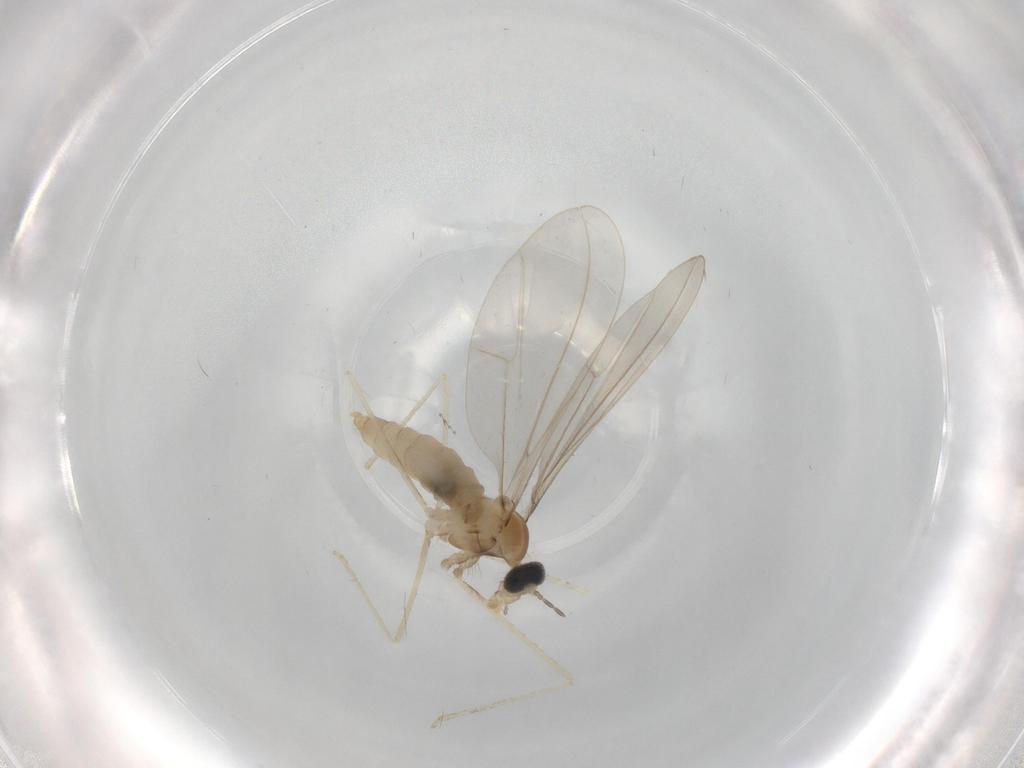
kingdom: Animalia
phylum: Arthropoda
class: Insecta
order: Diptera
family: Cecidomyiidae
